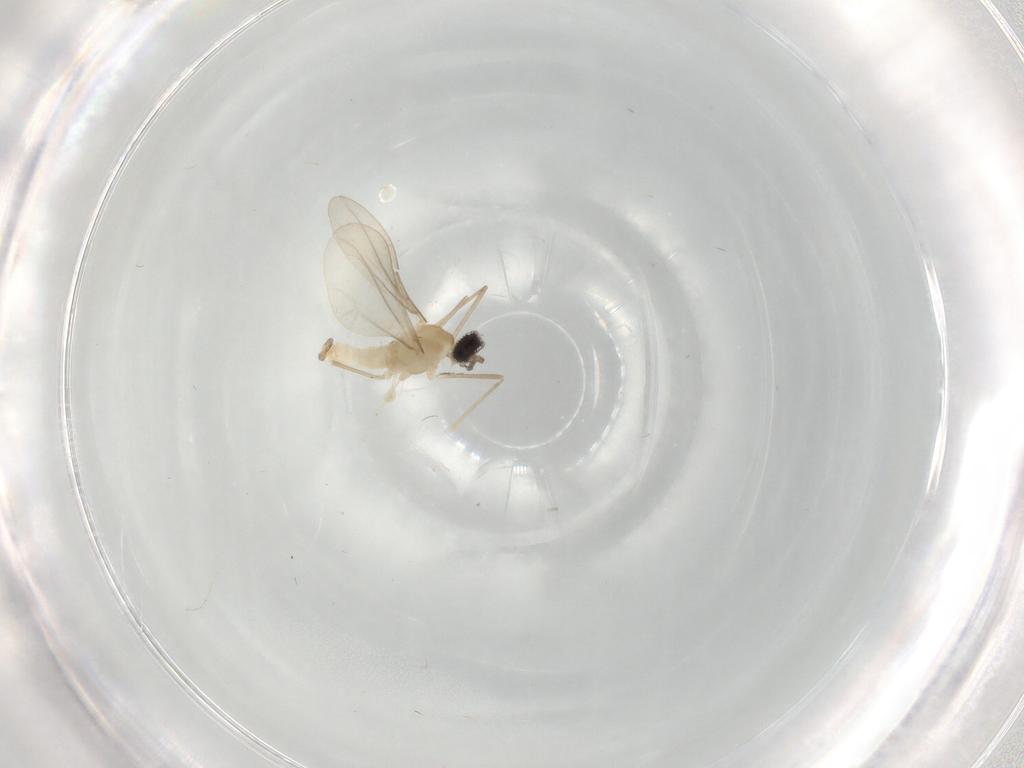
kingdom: Animalia
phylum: Arthropoda
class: Insecta
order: Diptera
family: Cecidomyiidae
